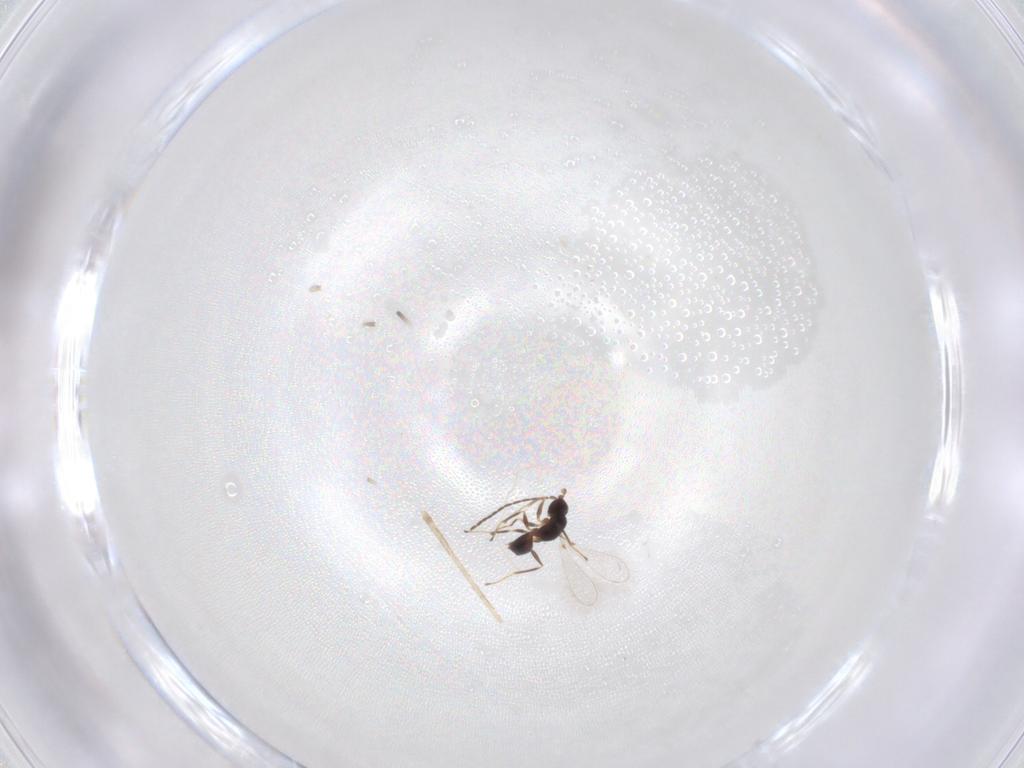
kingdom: Animalia
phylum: Arthropoda
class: Insecta
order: Hymenoptera
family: Scelionidae
